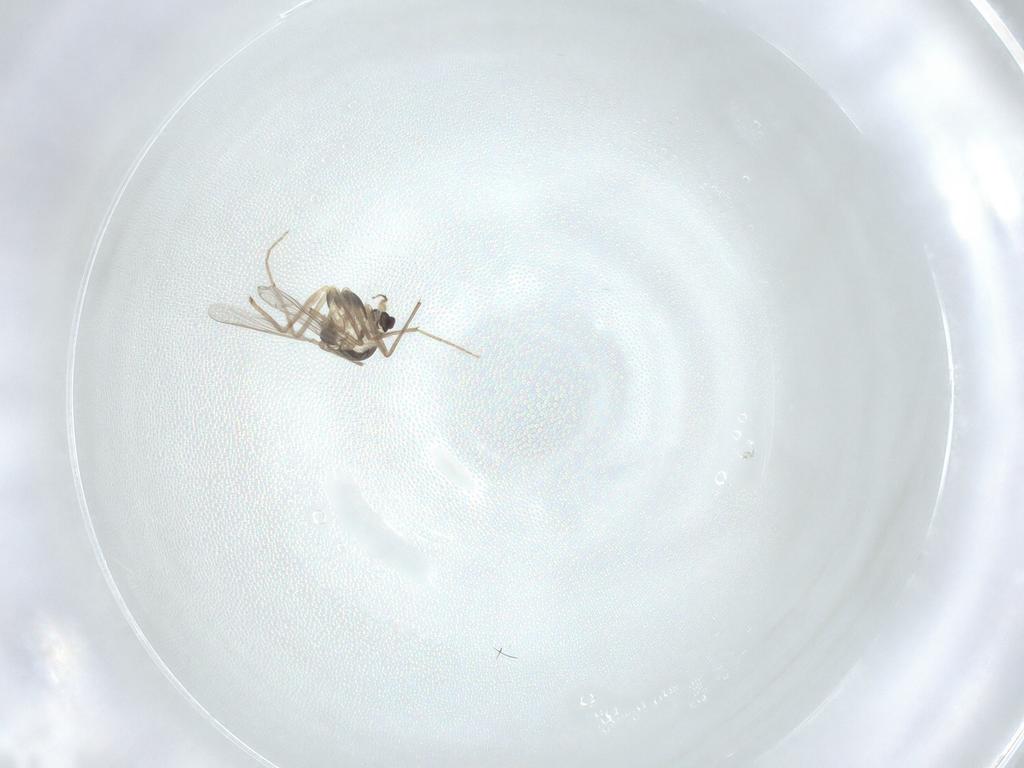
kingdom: Animalia
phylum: Arthropoda
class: Insecta
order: Diptera
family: Chironomidae
